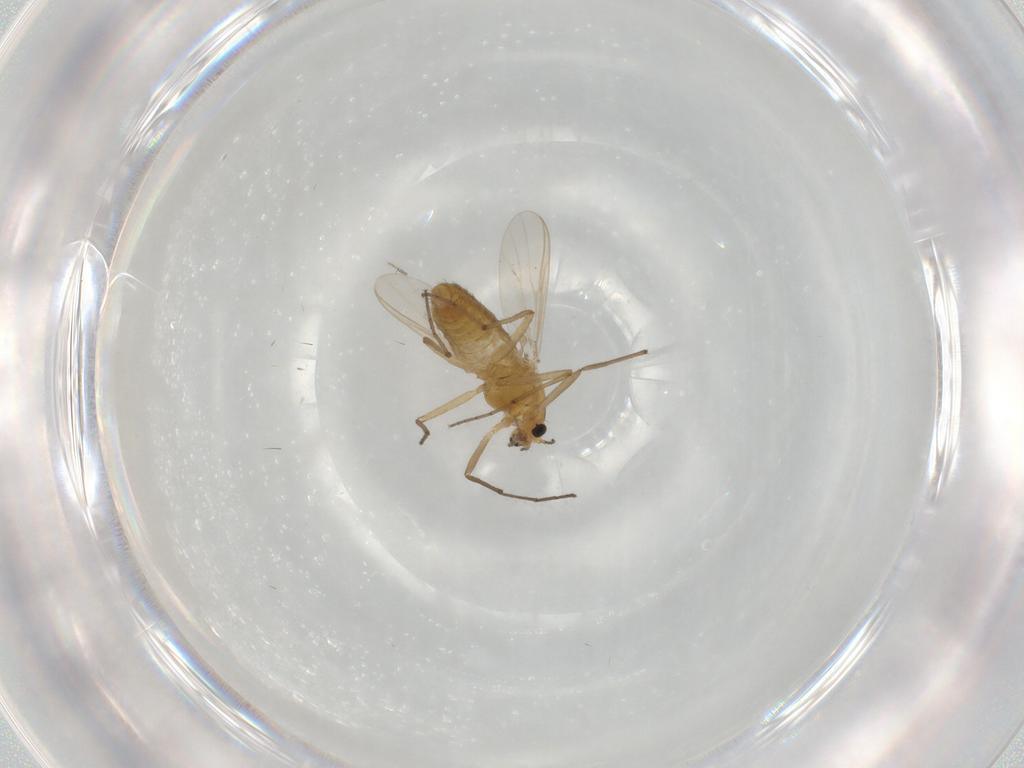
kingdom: Animalia
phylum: Arthropoda
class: Insecta
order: Diptera
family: Chironomidae
